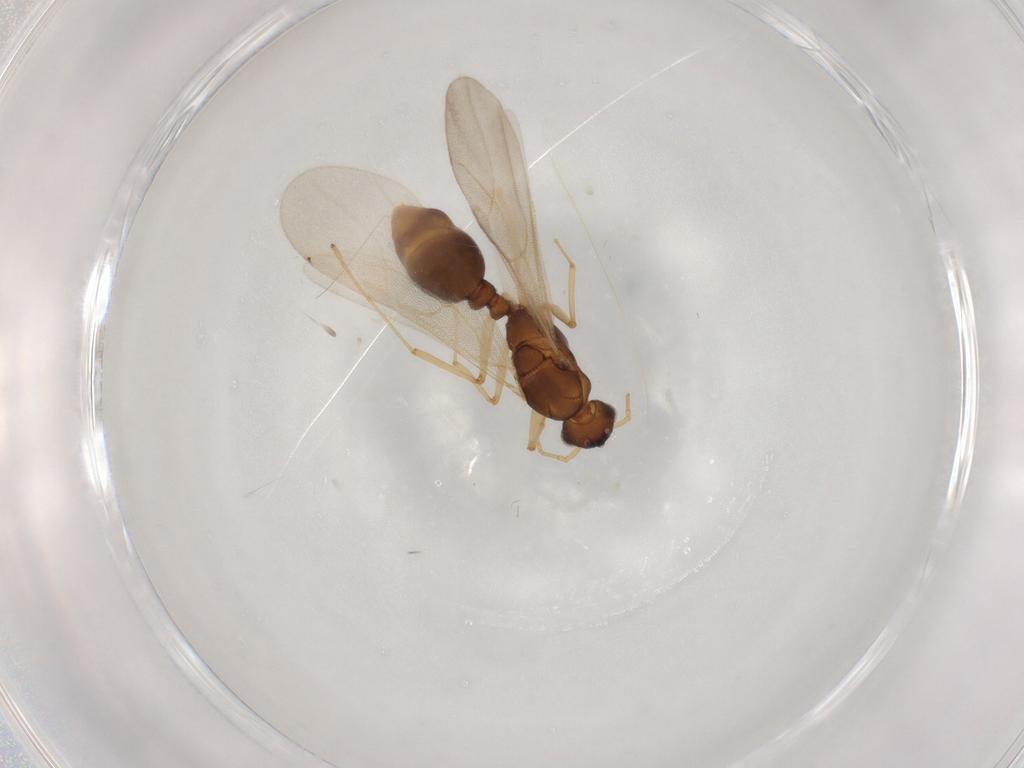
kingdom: Animalia
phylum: Arthropoda
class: Insecta
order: Hymenoptera
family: Formicidae
